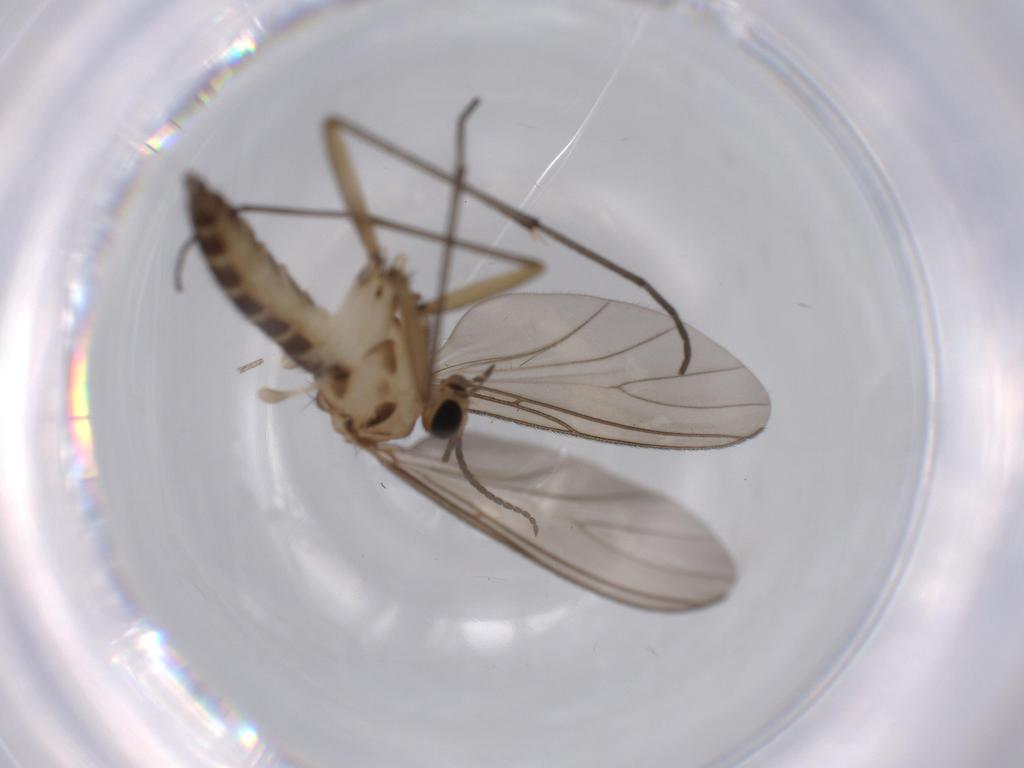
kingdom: Animalia
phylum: Arthropoda
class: Insecta
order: Diptera
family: Sciaridae
